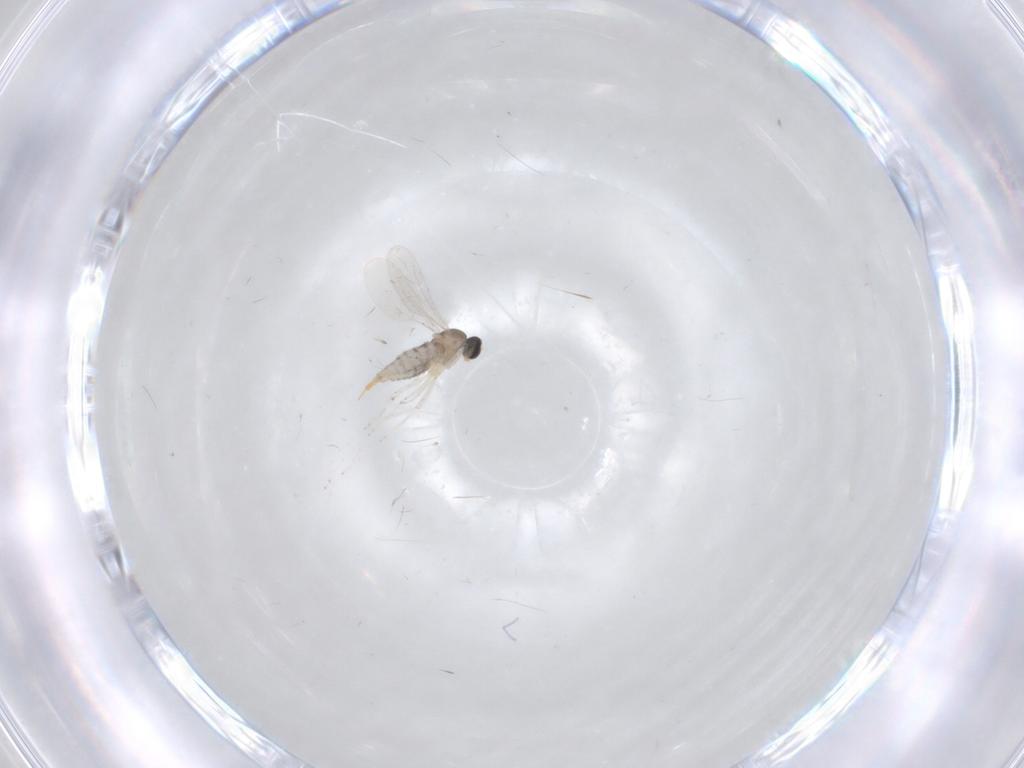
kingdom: Animalia
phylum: Arthropoda
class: Insecta
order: Diptera
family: Cecidomyiidae
